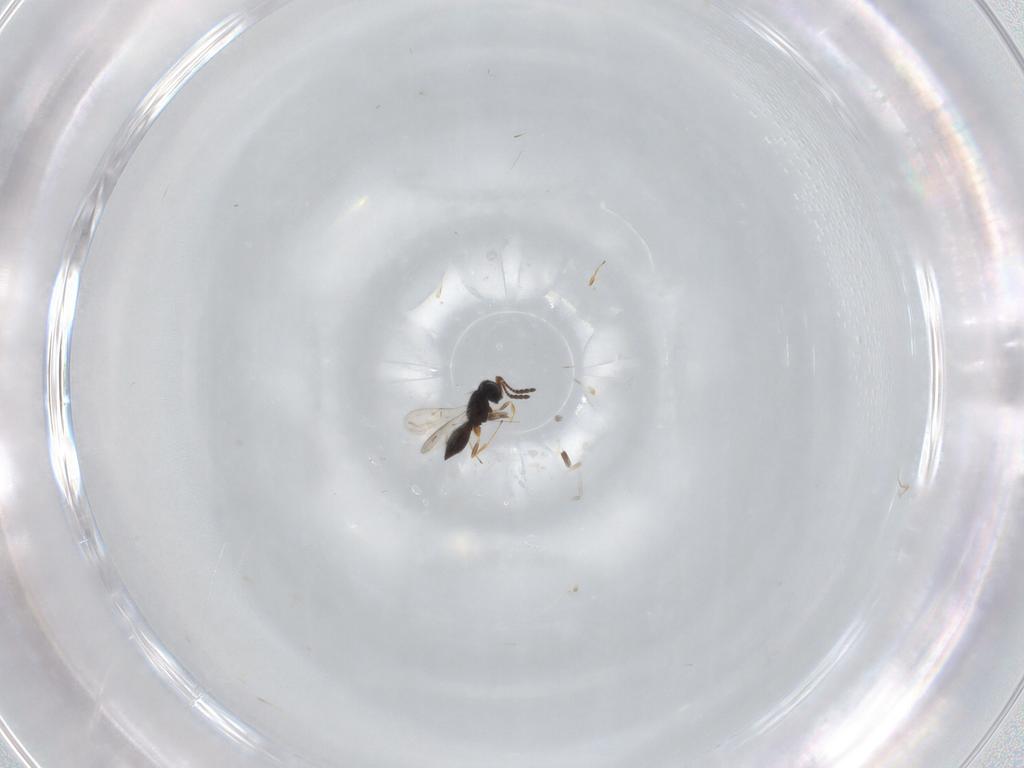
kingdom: Animalia
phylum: Arthropoda
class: Insecta
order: Hymenoptera
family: Scelionidae
